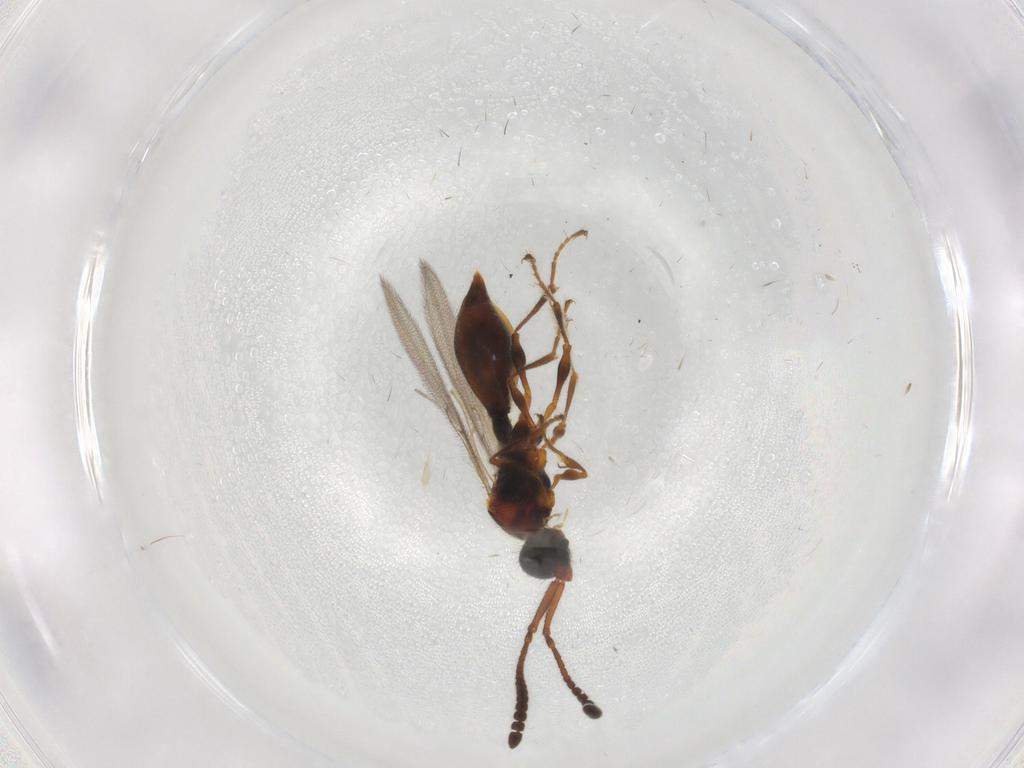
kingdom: Animalia
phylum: Arthropoda
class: Insecta
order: Hymenoptera
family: Diapriidae
